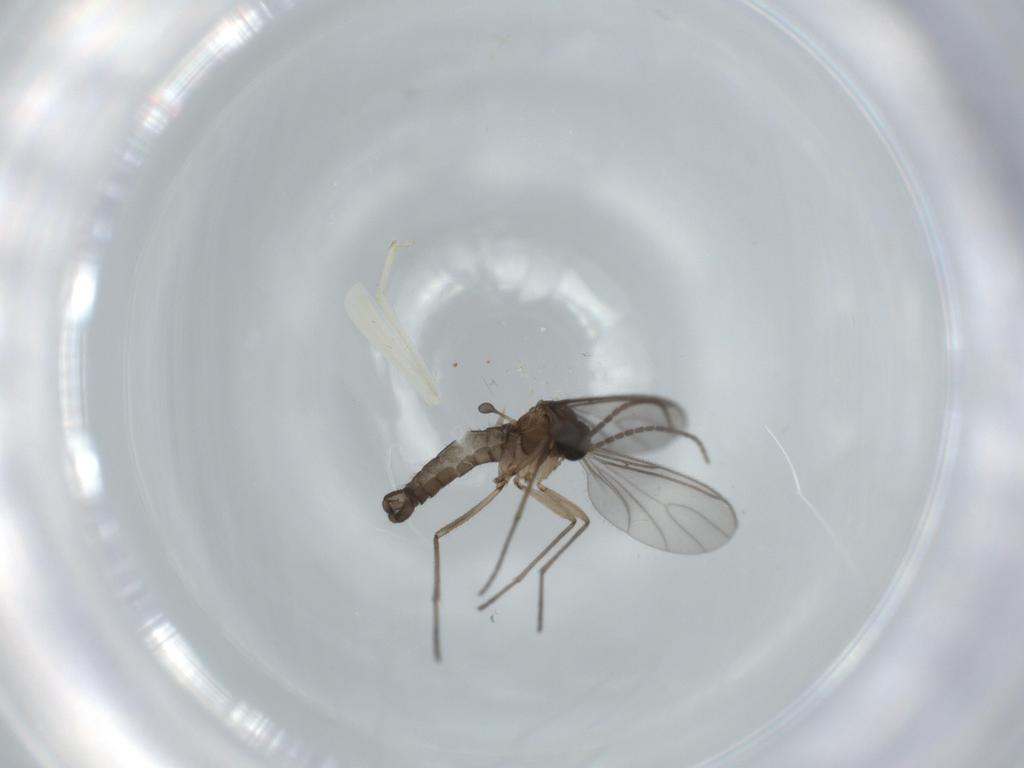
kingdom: Animalia
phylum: Arthropoda
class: Insecta
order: Diptera
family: Sciaridae
